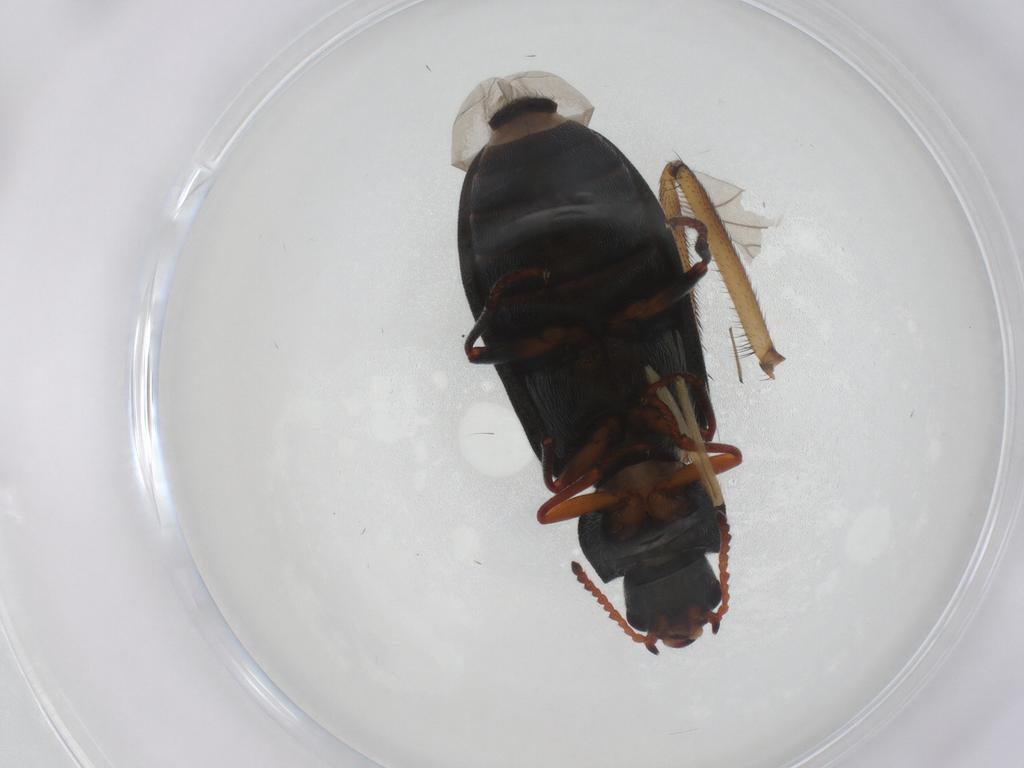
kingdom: Animalia
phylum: Arthropoda
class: Insecta
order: Coleoptera
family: Melyridae
